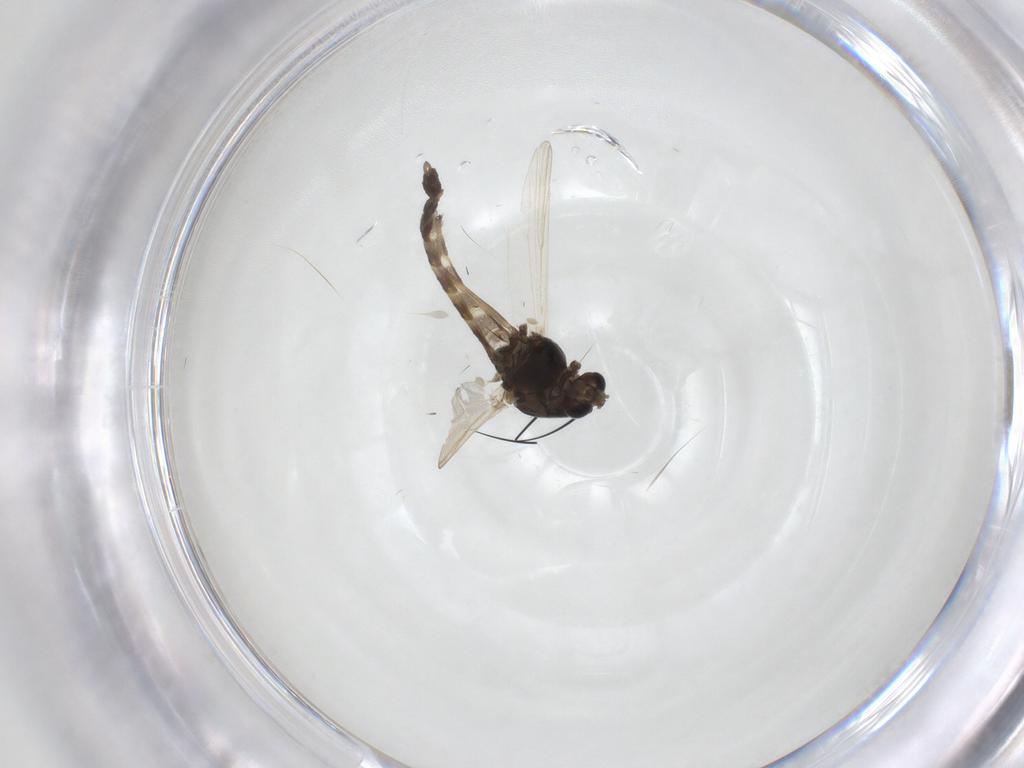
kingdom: Animalia
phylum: Arthropoda
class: Insecta
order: Diptera
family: Chironomidae
